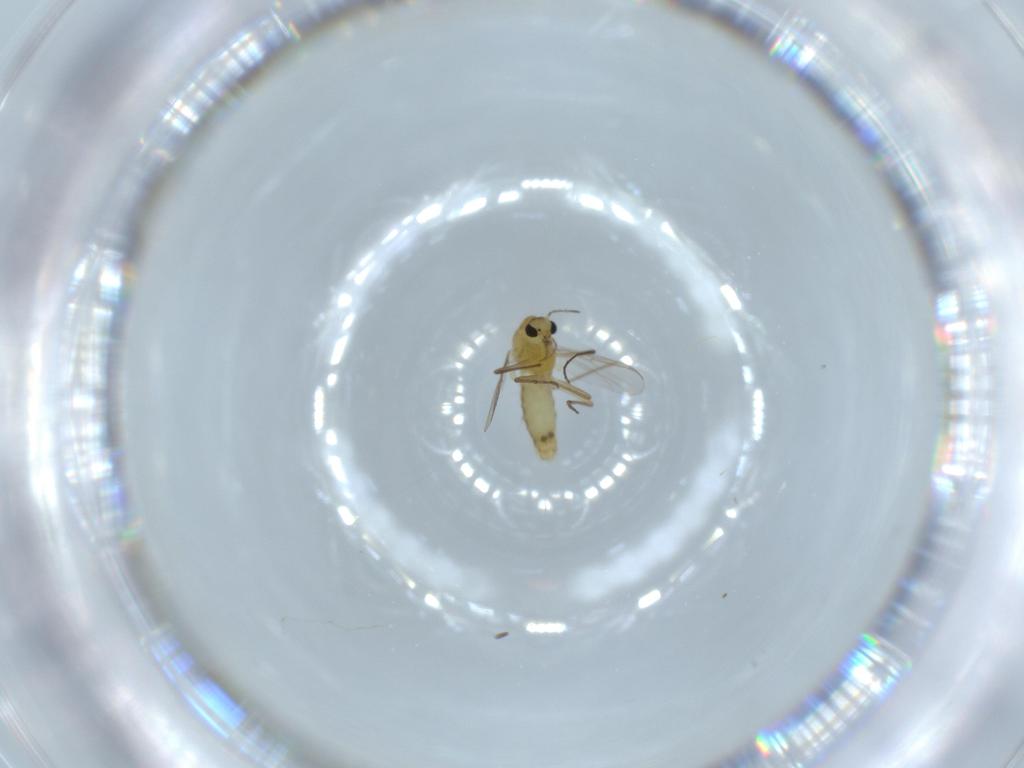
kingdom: Animalia
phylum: Arthropoda
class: Insecta
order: Diptera
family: Chironomidae
